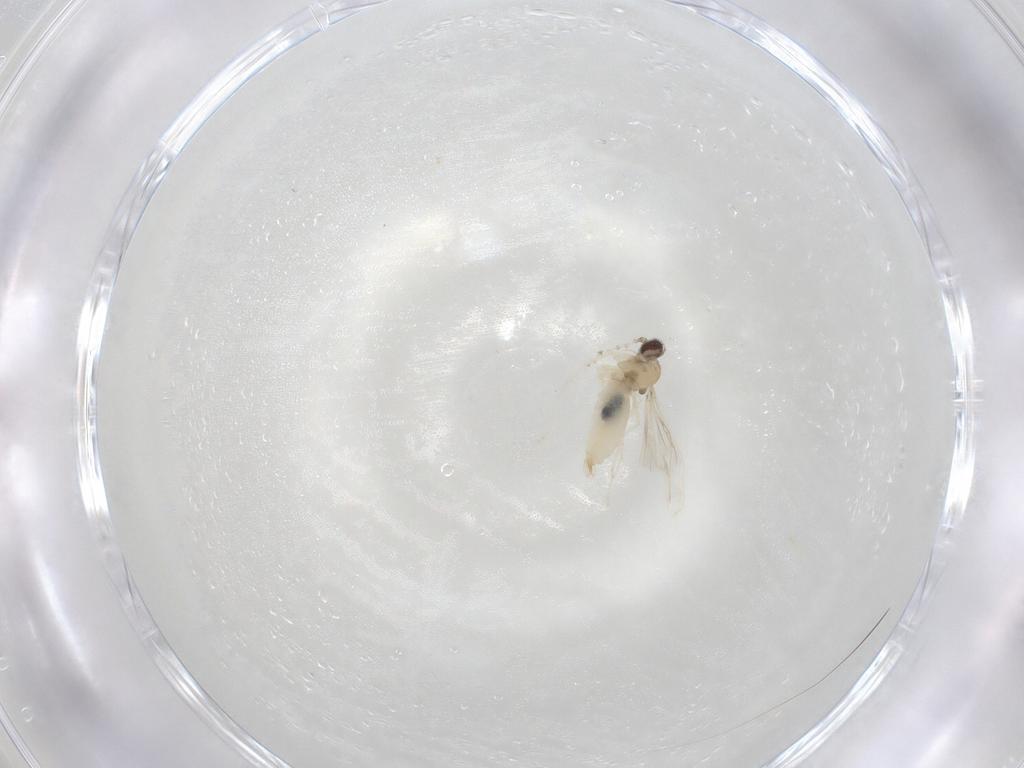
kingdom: Animalia
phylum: Arthropoda
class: Insecta
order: Diptera
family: Cecidomyiidae
